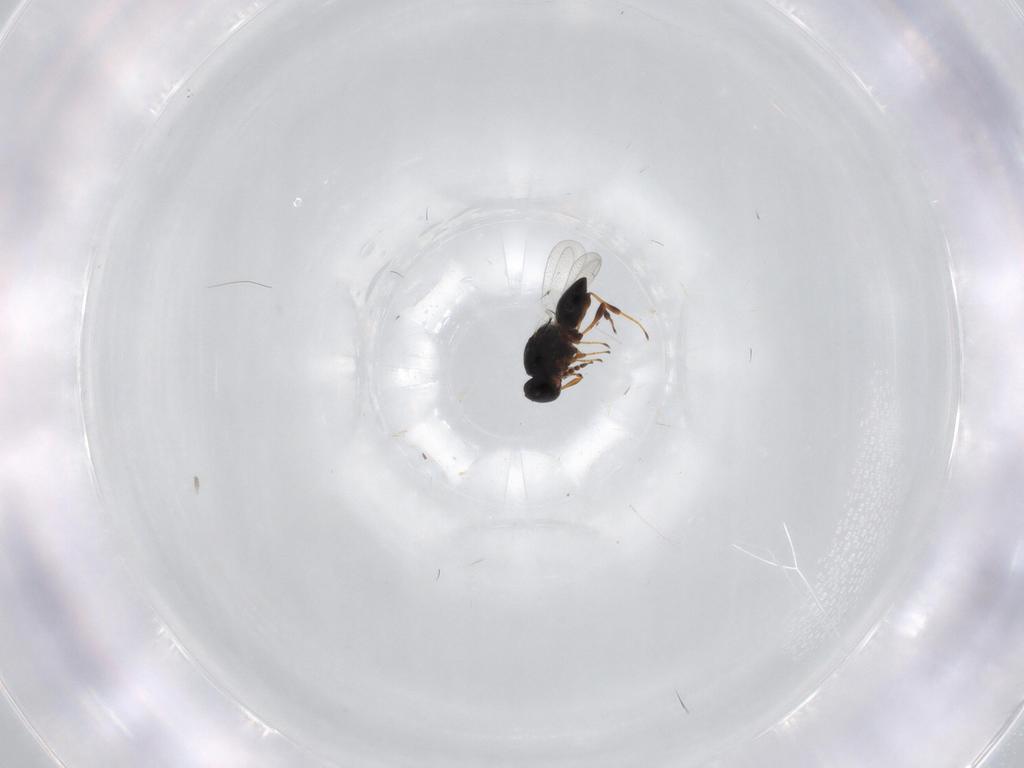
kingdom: Animalia
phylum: Arthropoda
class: Insecta
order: Hymenoptera
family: Platygastridae
